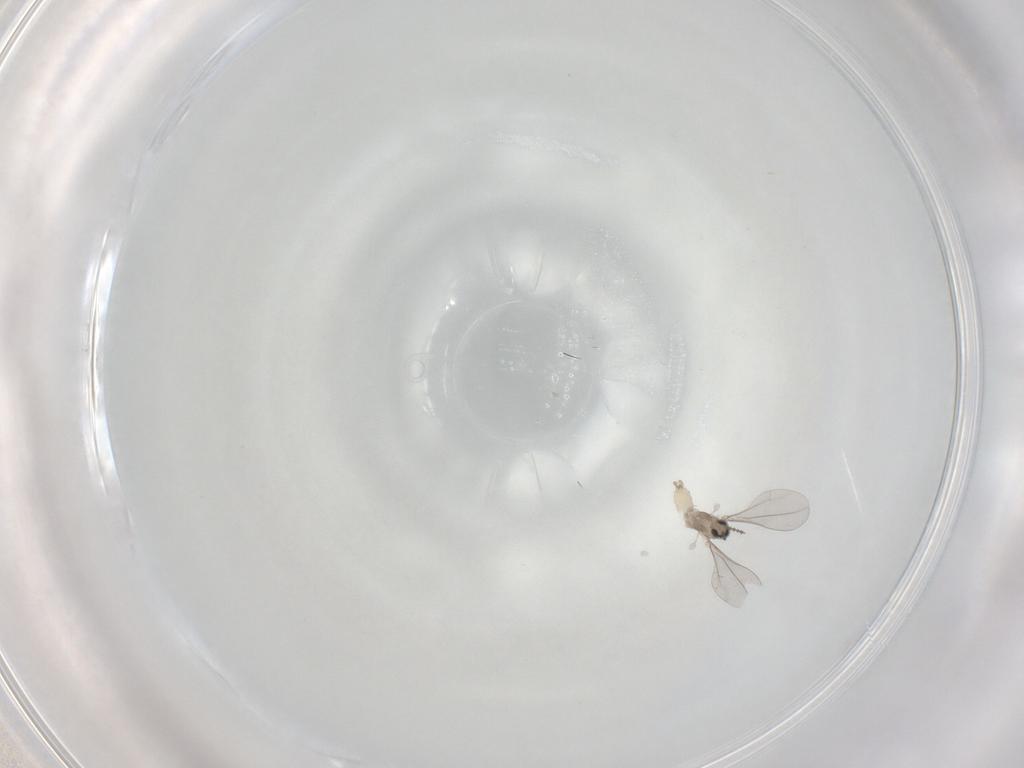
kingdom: Animalia
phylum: Arthropoda
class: Insecta
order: Diptera
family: Cecidomyiidae
